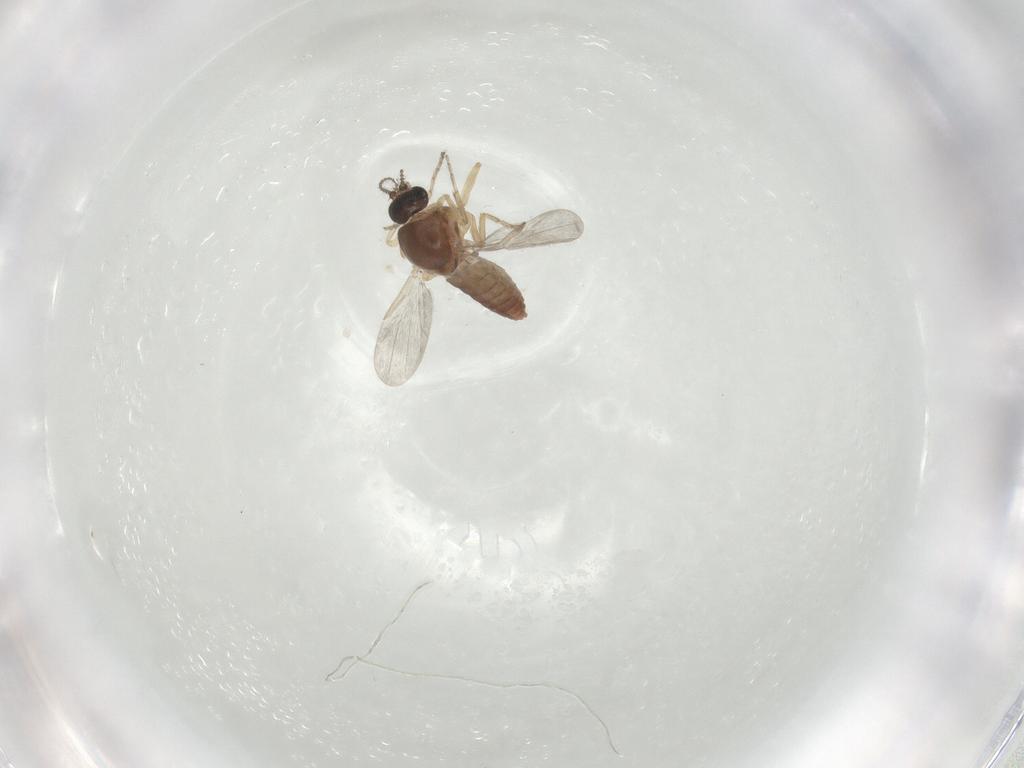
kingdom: Animalia
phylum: Arthropoda
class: Insecta
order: Diptera
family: Ceratopogonidae
